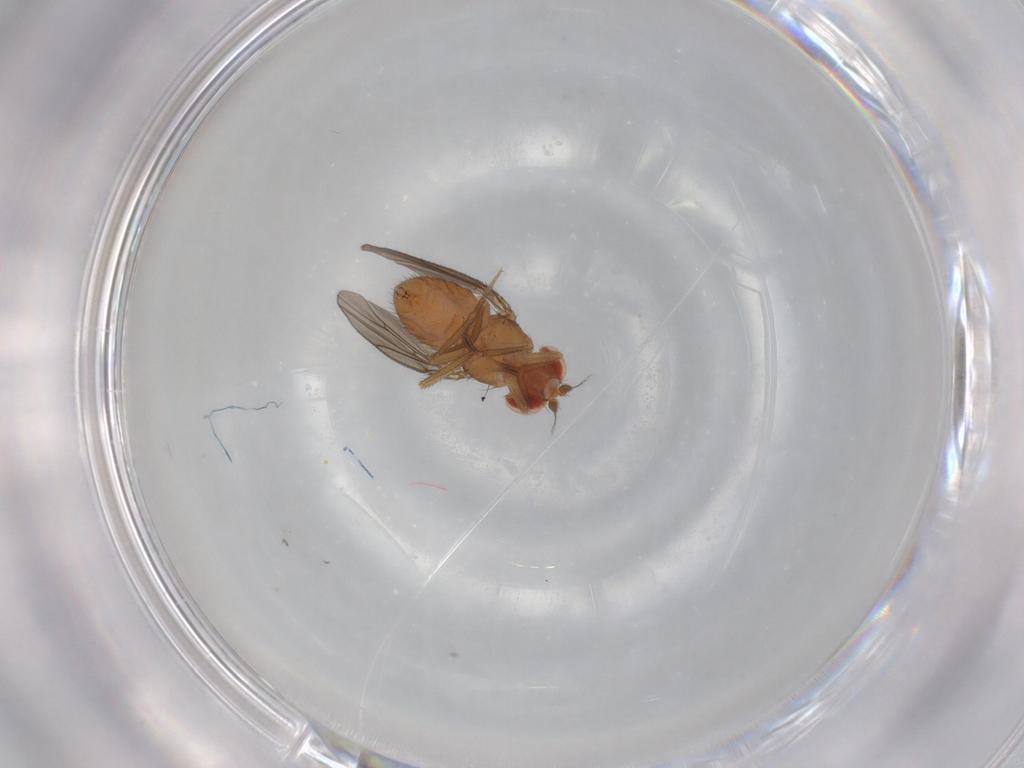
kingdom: Animalia
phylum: Arthropoda
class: Insecta
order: Diptera
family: Drosophilidae
